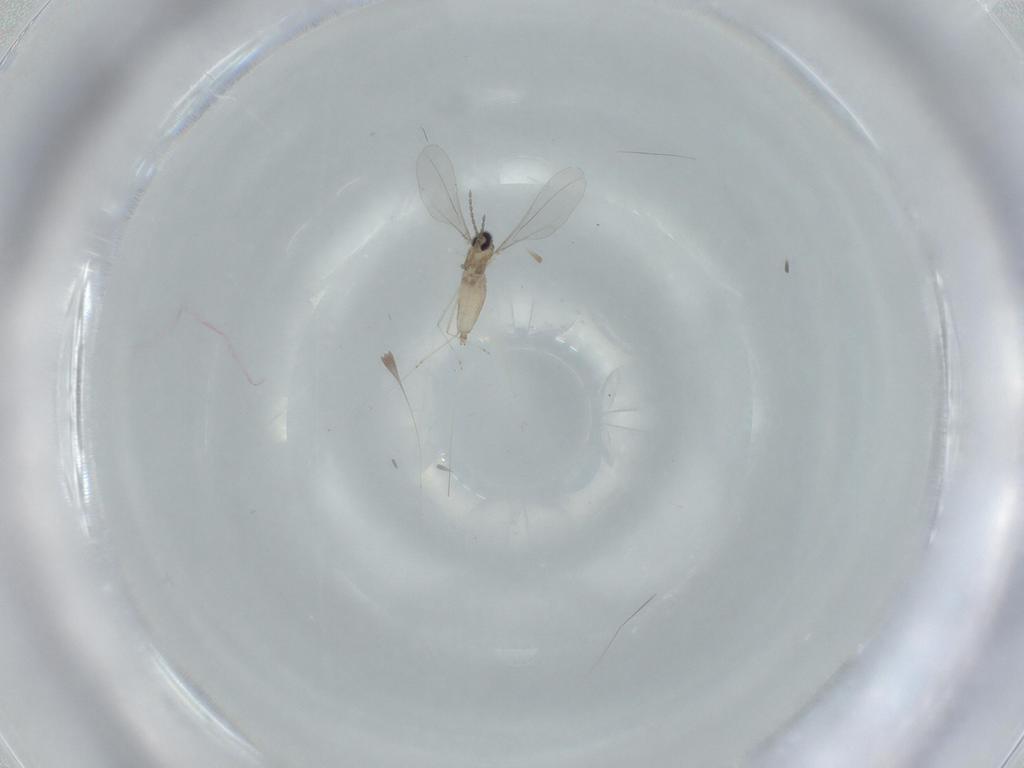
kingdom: Animalia
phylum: Arthropoda
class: Insecta
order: Diptera
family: Cecidomyiidae
